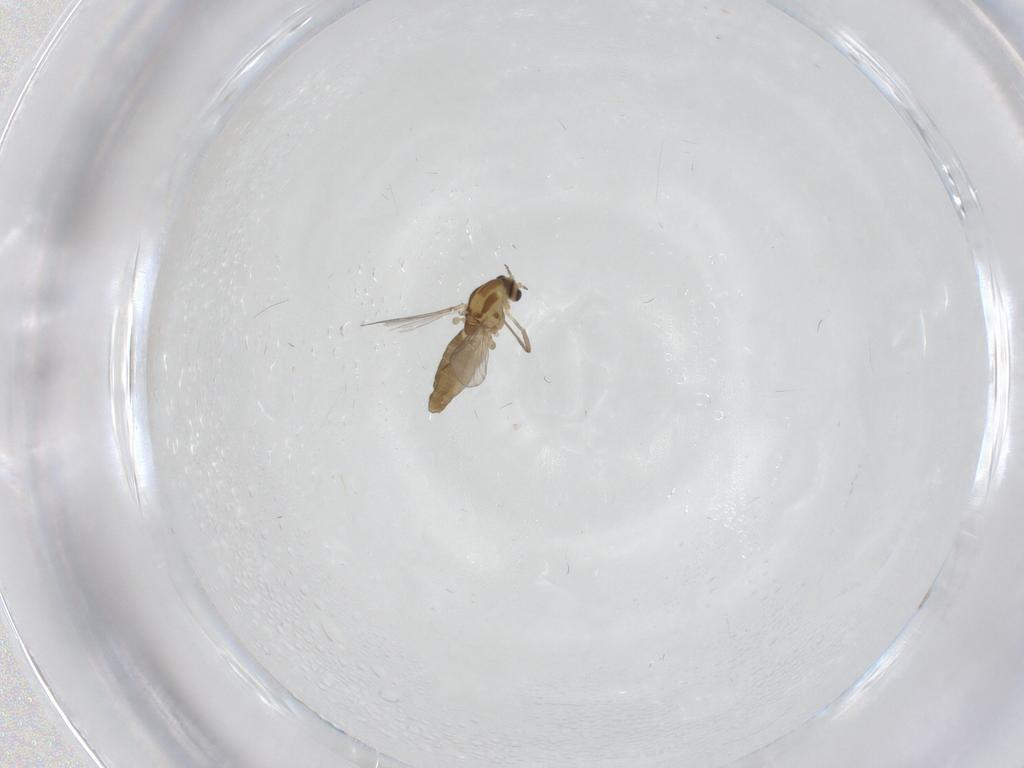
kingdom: Animalia
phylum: Arthropoda
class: Insecta
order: Diptera
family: Chironomidae
